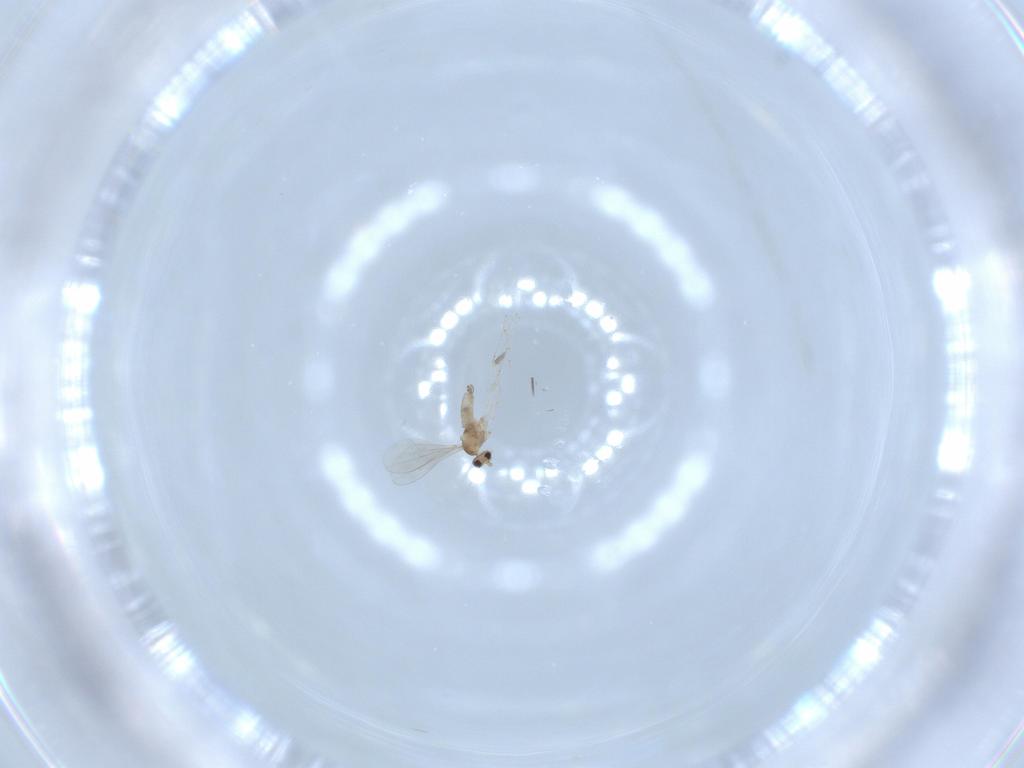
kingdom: Animalia
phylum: Arthropoda
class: Insecta
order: Diptera
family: Cecidomyiidae
